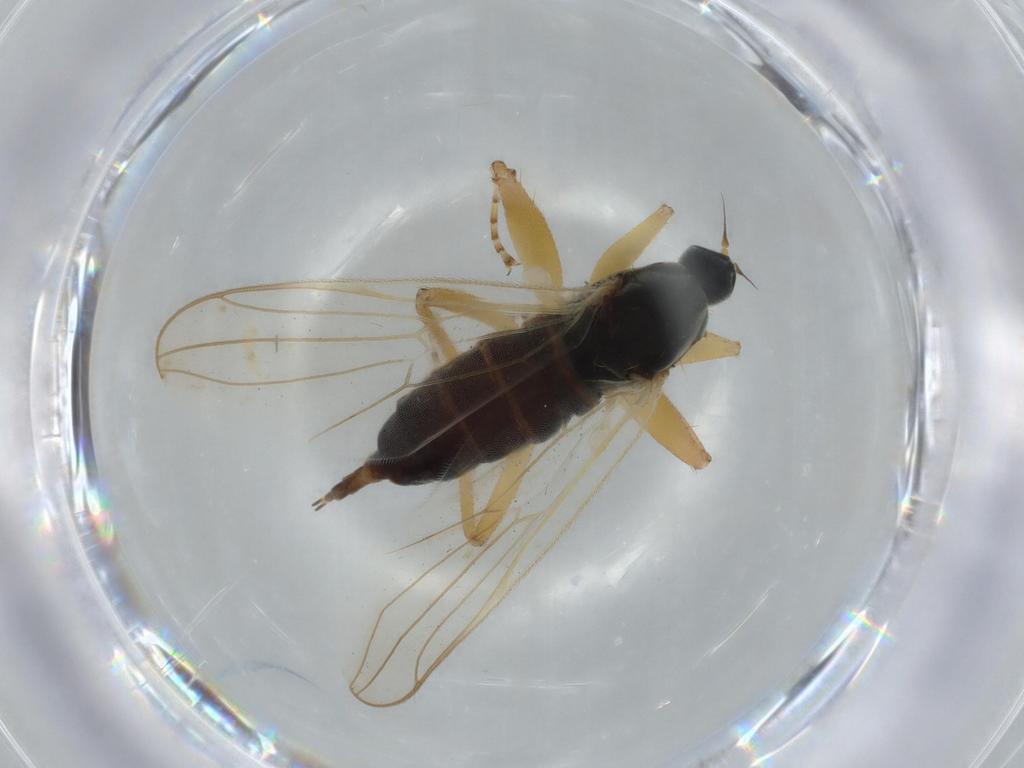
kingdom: Animalia
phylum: Arthropoda
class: Insecta
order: Diptera
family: Hybotidae
